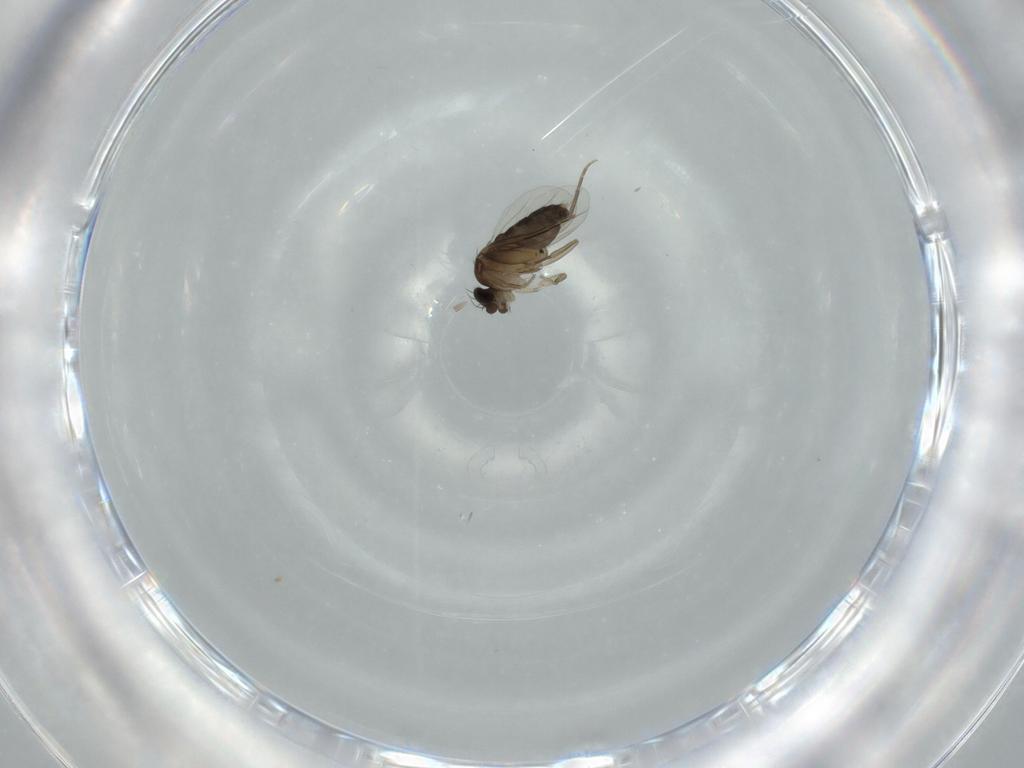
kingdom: Animalia
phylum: Arthropoda
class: Insecta
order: Diptera
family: Phoridae
